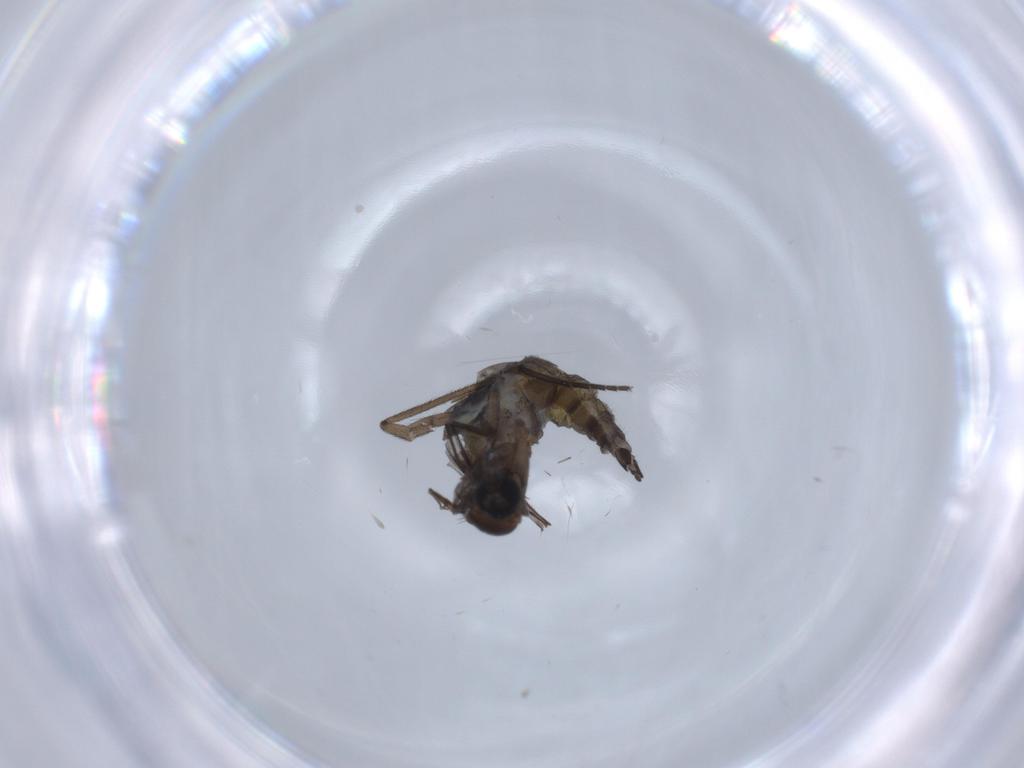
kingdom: Animalia
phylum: Arthropoda
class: Insecta
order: Diptera
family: Sciaridae
